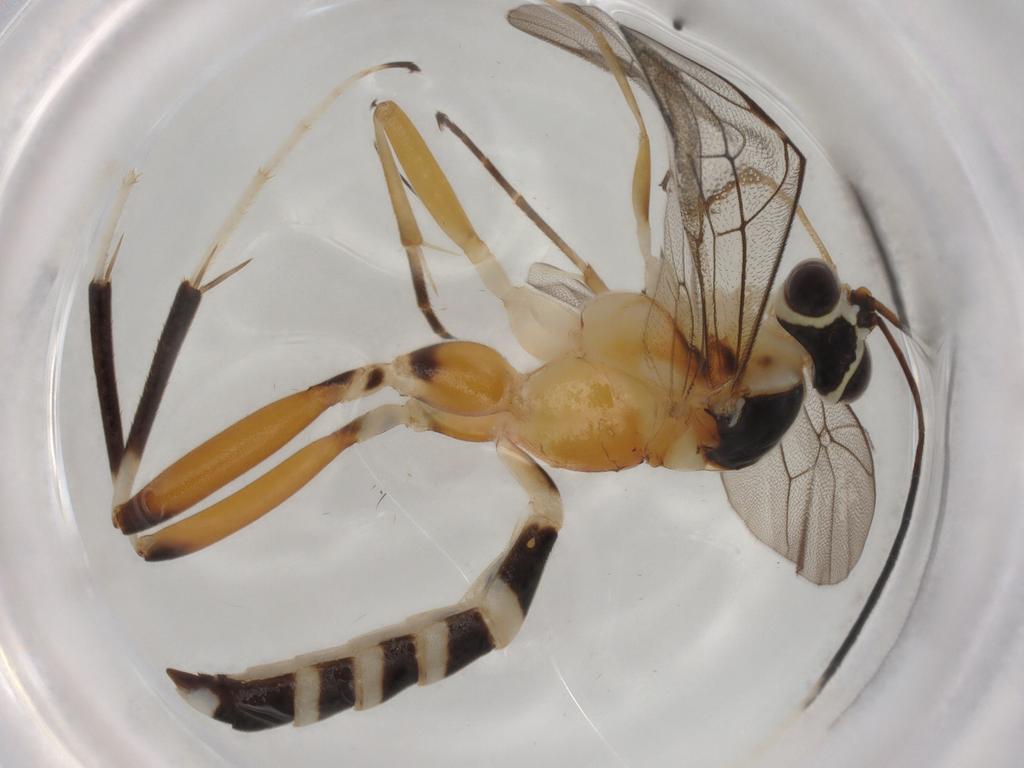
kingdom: Animalia
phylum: Arthropoda
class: Insecta
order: Hymenoptera
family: Ichneumonidae
